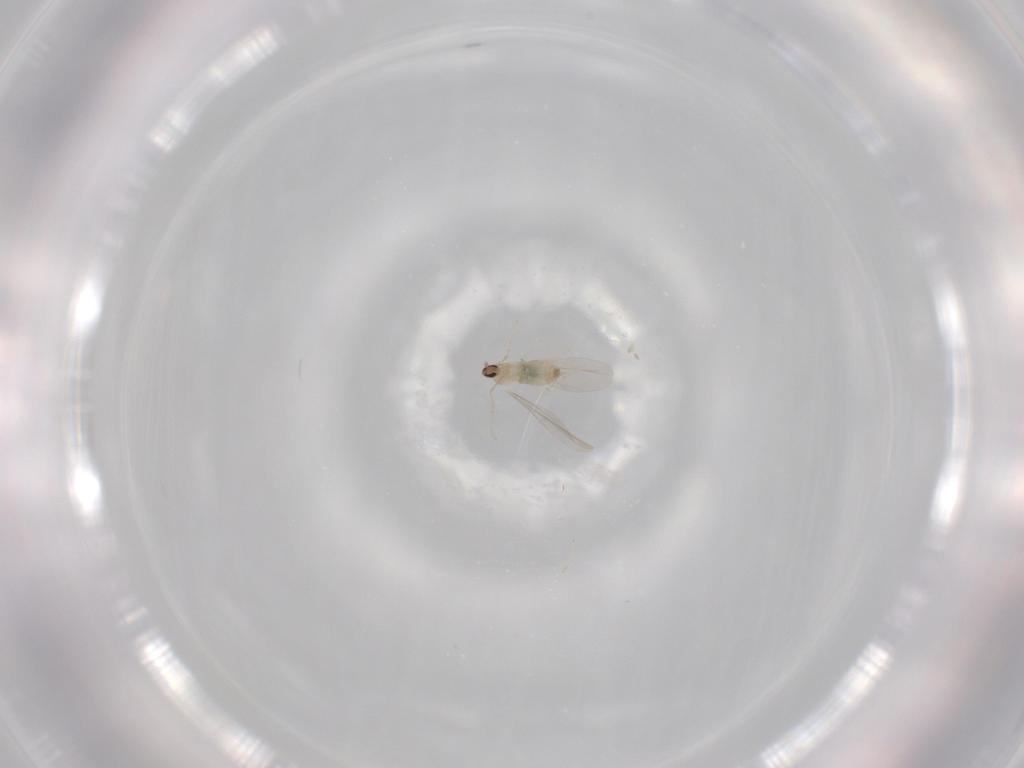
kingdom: Animalia
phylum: Arthropoda
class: Insecta
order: Diptera
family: Cecidomyiidae
